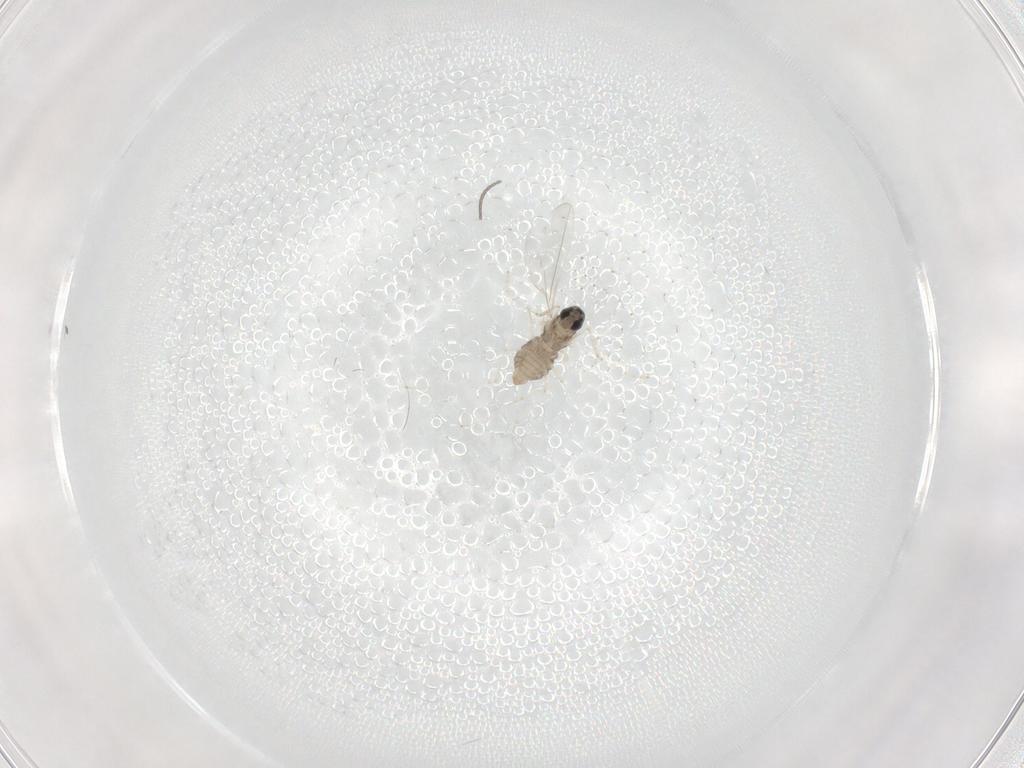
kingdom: Animalia
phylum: Arthropoda
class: Insecta
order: Diptera
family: Cecidomyiidae
